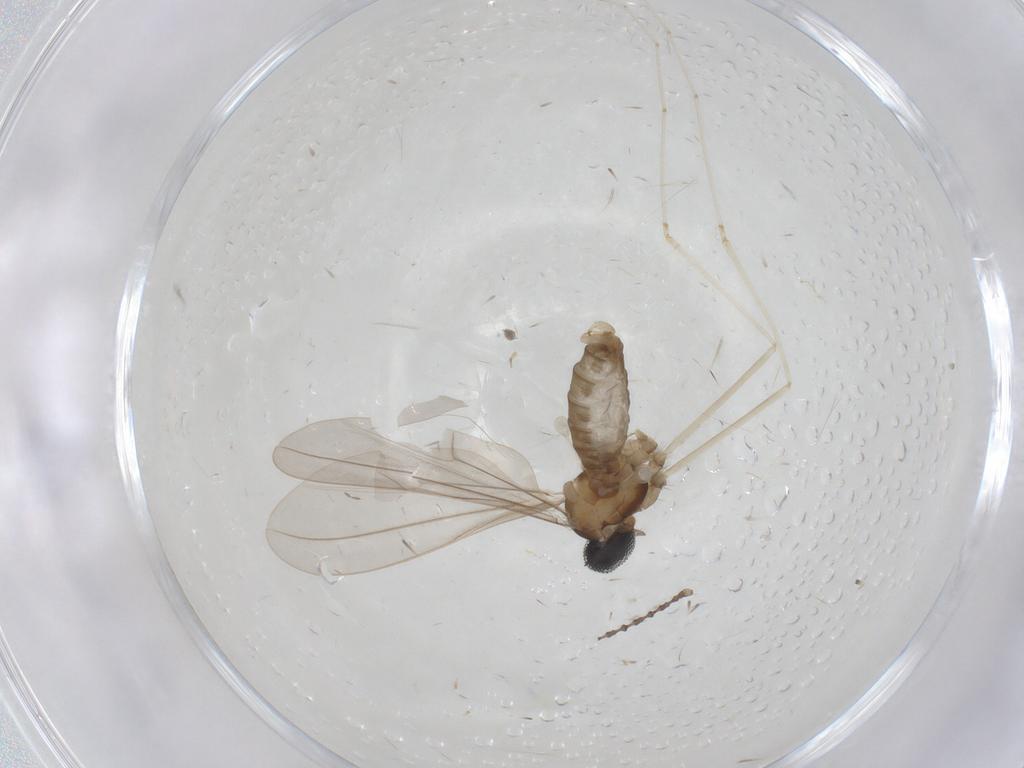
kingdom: Animalia
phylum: Arthropoda
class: Insecta
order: Diptera
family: Cecidomyiidae
